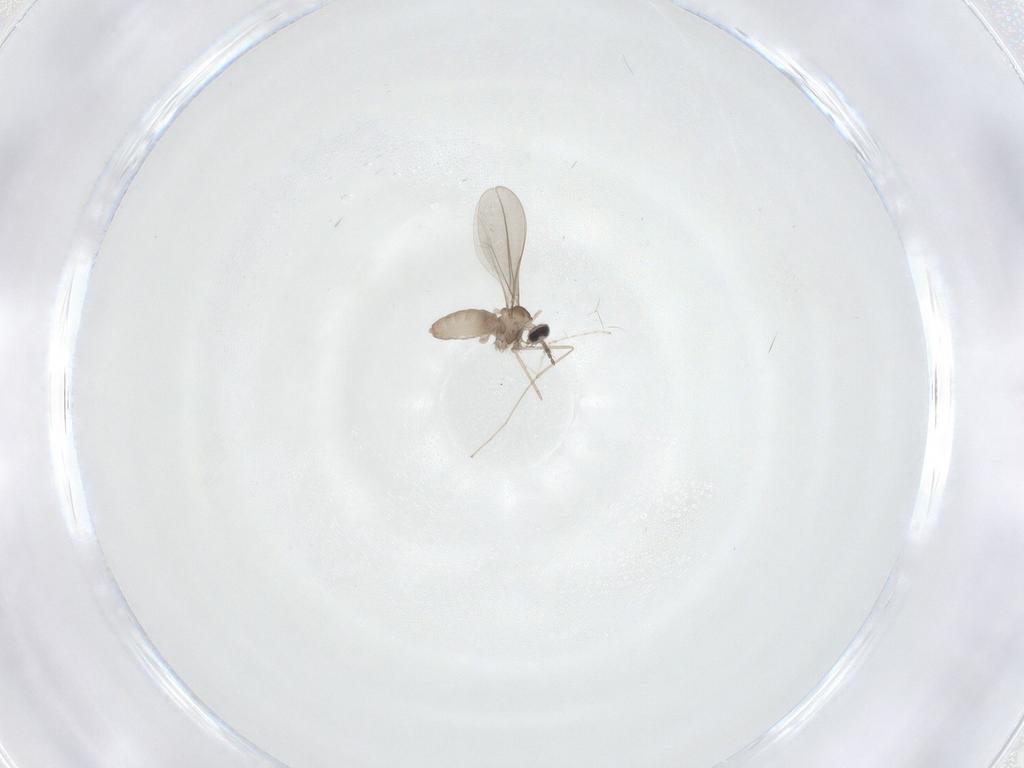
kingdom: Animalia
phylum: Arthropoda
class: Insecta
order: Diptera
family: Cecidomyiidae
